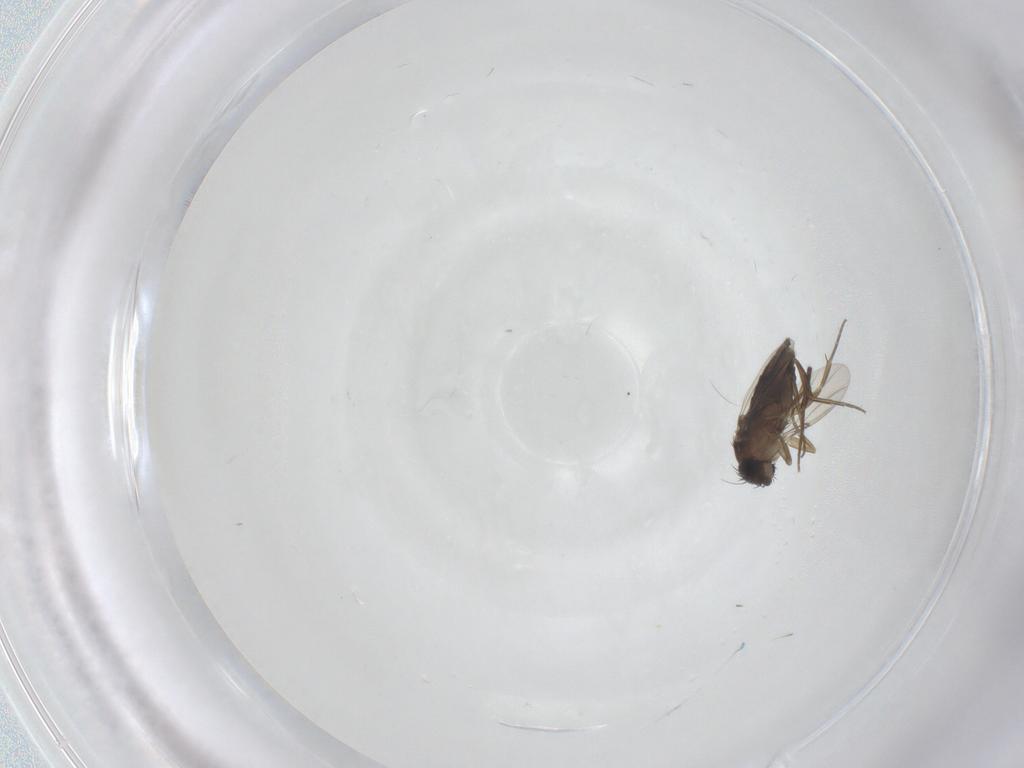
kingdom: Animalia
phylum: Arthropoda
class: Insecta
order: Diptera
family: Phoridae
